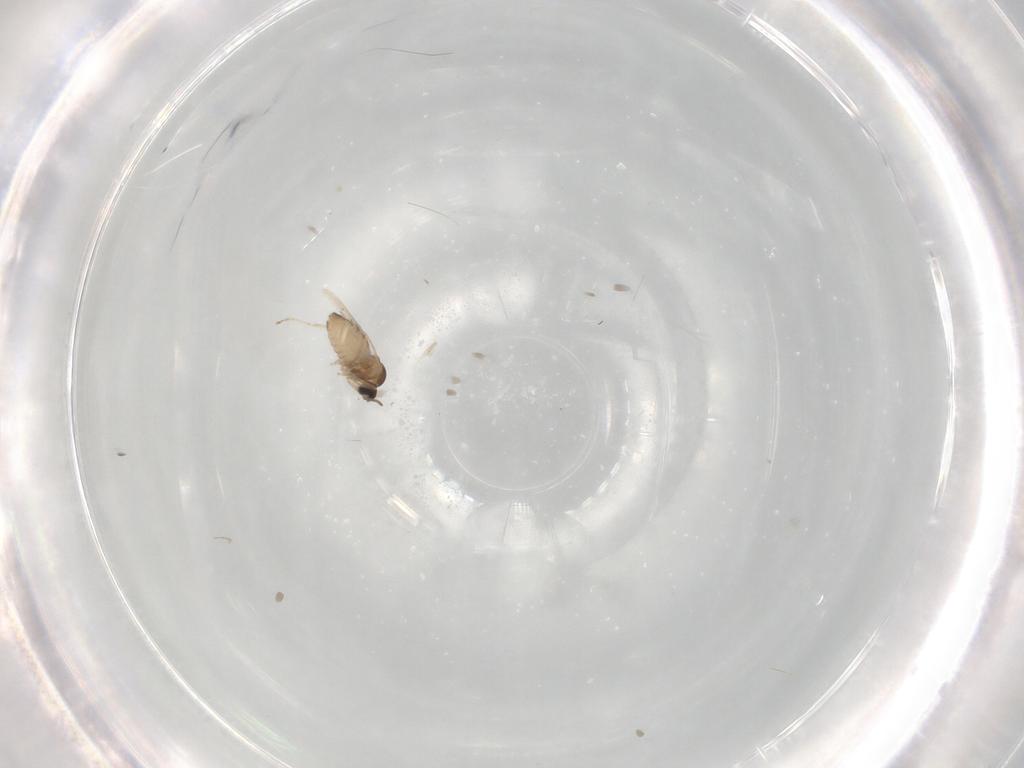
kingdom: Animalia
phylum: Arthropoda
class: Insecta
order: Diptera
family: Cecidomyiidae
